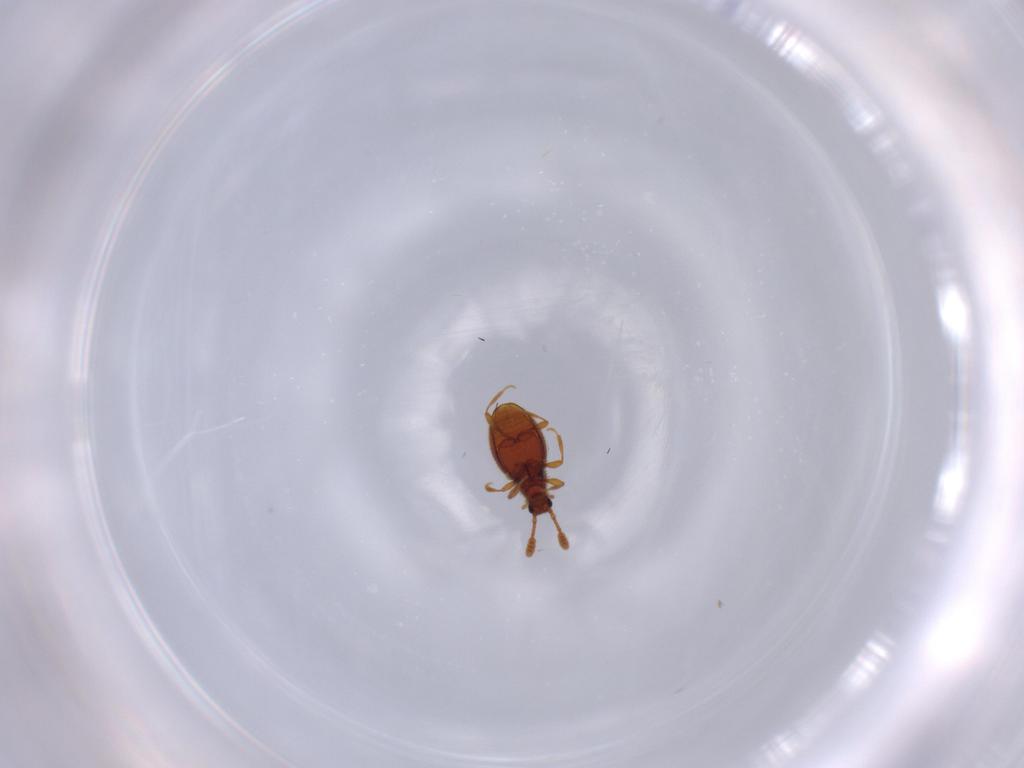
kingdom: Animalia
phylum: Arthropoda
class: Insecta
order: Coleoptera
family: Staphylinidae
